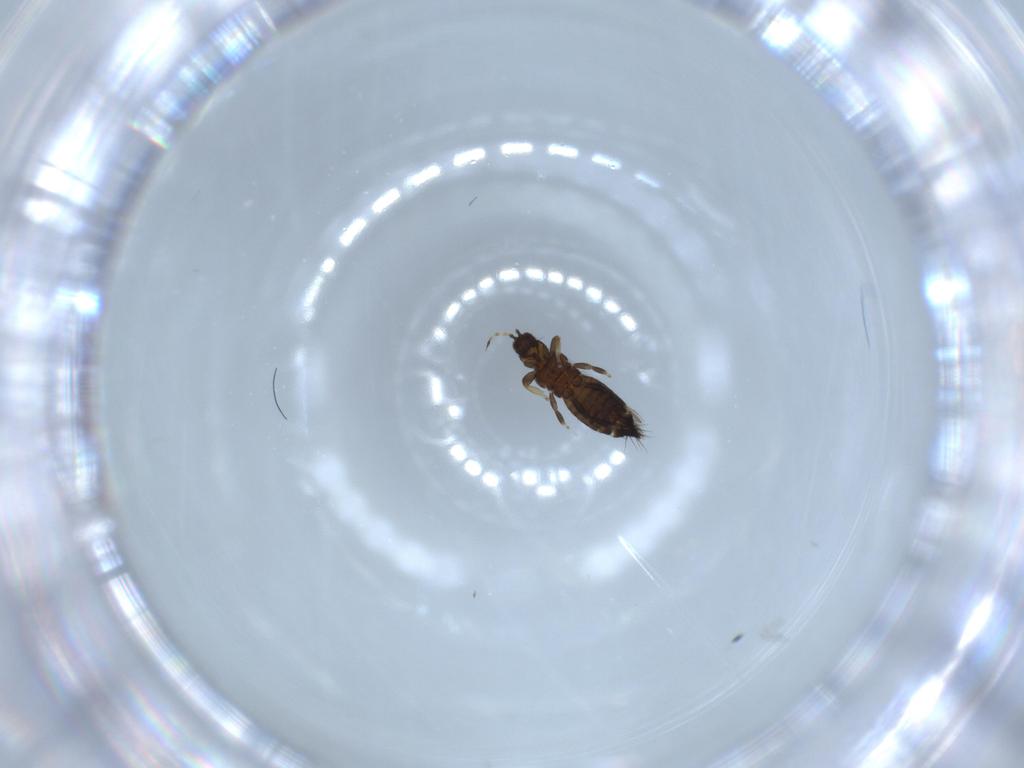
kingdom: Animalia
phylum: Arthropoda
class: Insecta
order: Thysanoptera
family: Thripidae
